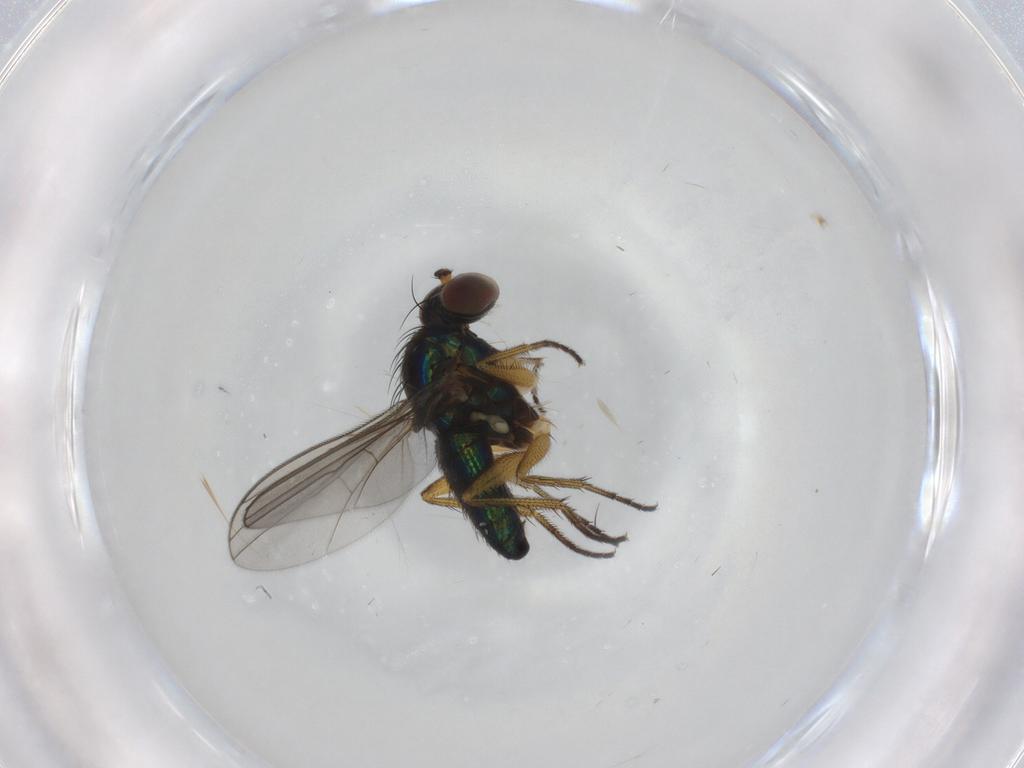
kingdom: Animalia
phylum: Arthropoda
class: Insecta
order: Diptera
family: Dolichopodidae
